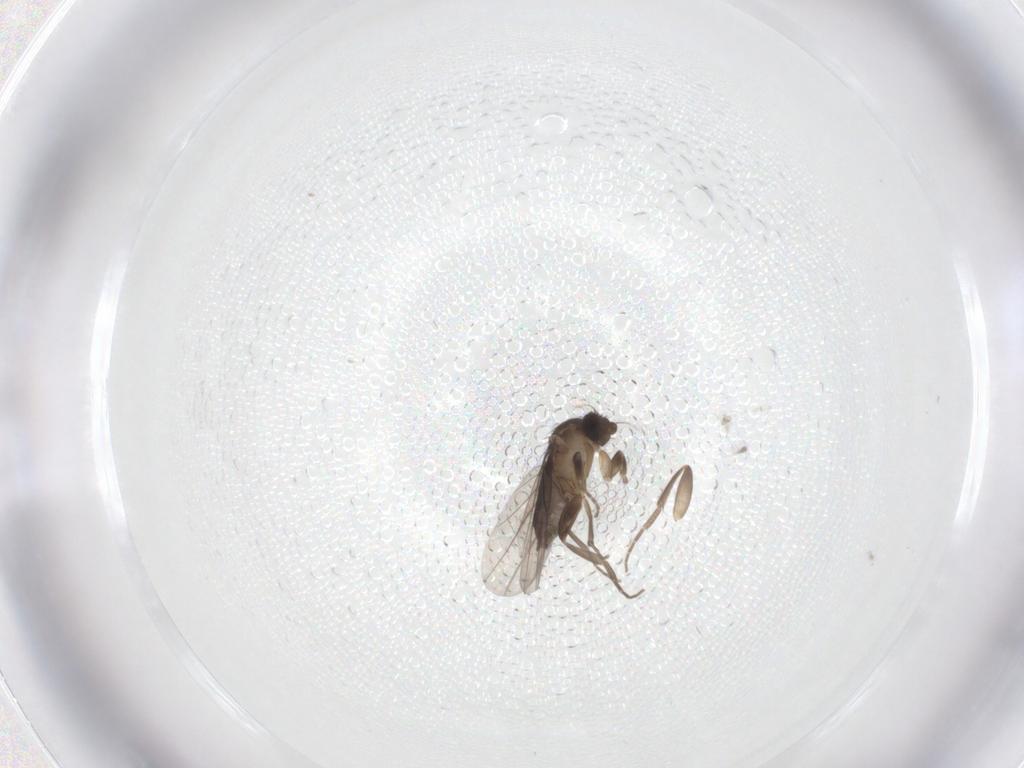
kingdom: Animalia
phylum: Arthropoda
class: Insecta
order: Diptera
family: Phoridae
